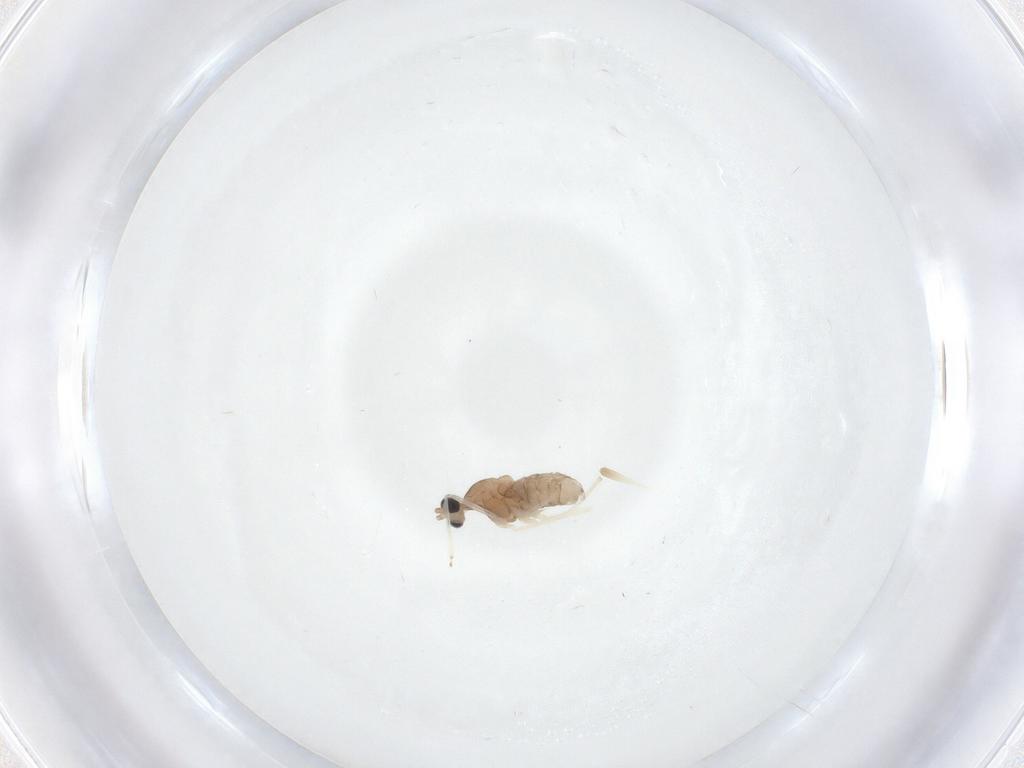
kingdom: Animalia
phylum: Arthropoda
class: Insecta
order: Diptera
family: Cecidomyiidae
